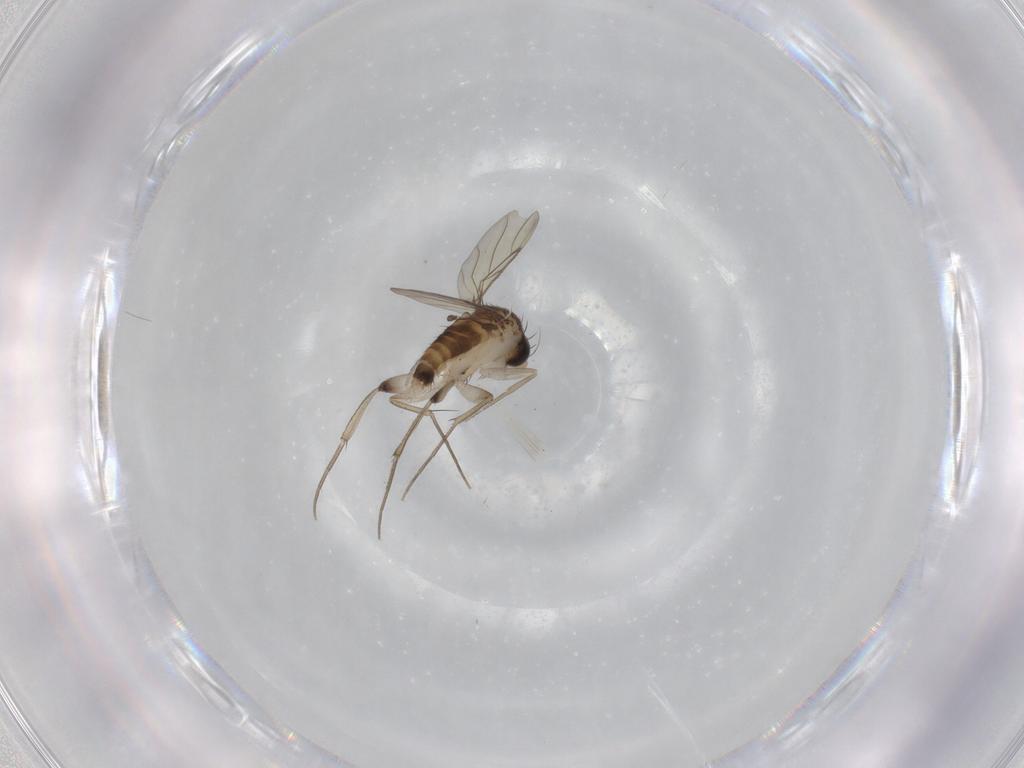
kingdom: Animalia
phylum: Arthropoda
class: Insecta
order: Diptera
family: Phoridae
